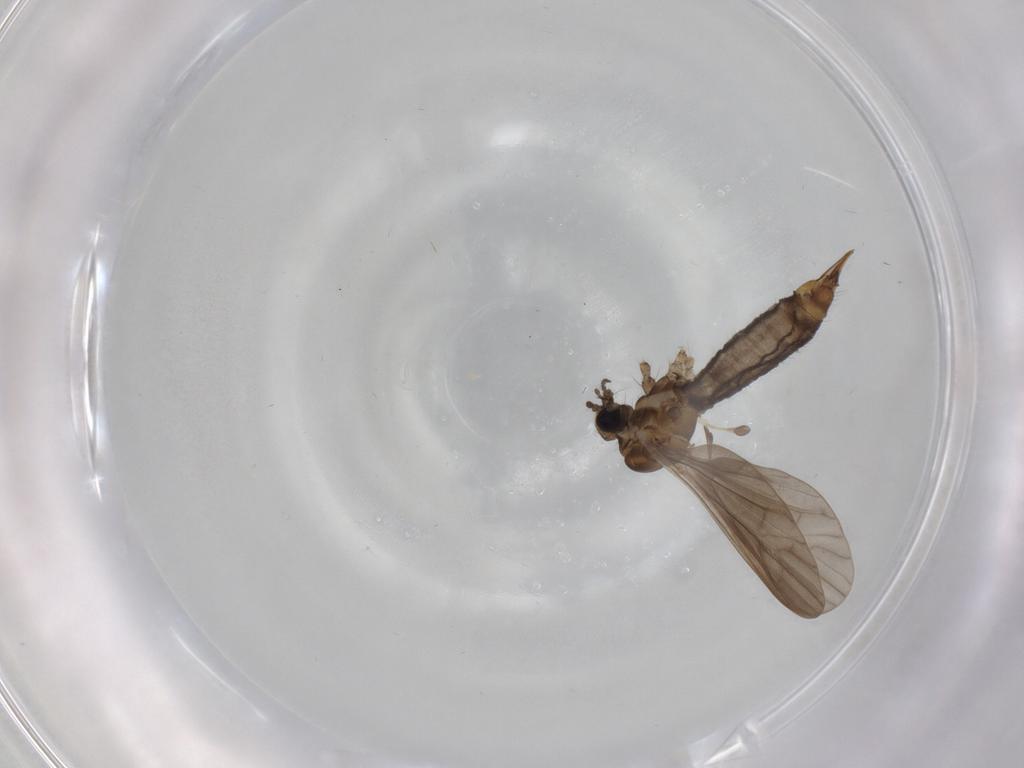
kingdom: Animalia
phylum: Arthropoda
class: Insecta
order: Diptera
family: Limoniidae
